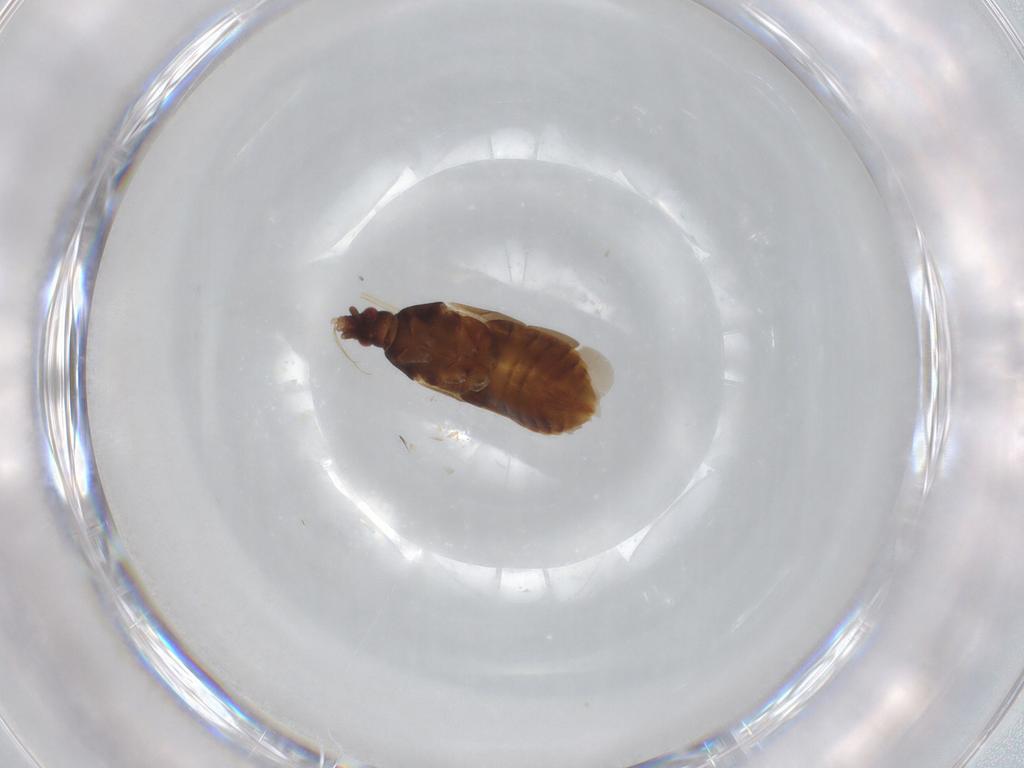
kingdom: Animalia
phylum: Arthropoda
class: Insecta
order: Hemiptera
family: Lasiochilidae
